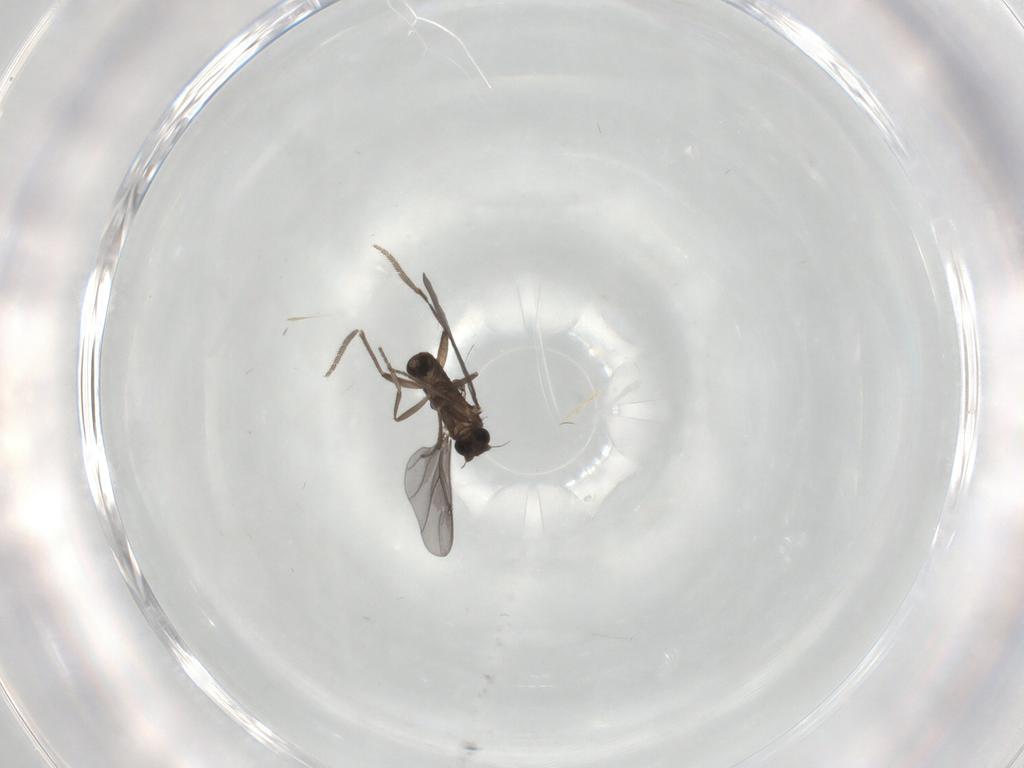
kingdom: Animalia
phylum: Arthropoda
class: Insecta
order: Diptera
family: Phoridae
